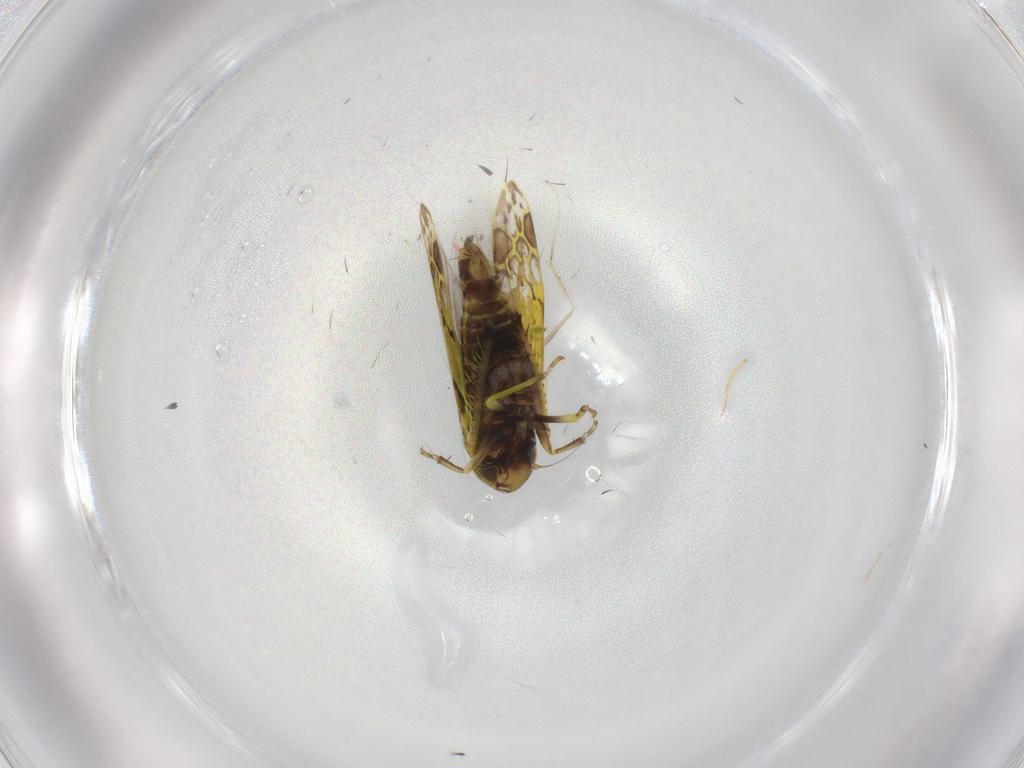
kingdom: Animalia
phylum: Arthropoda
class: Insecta
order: Hemiptera
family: Cicadellidae
